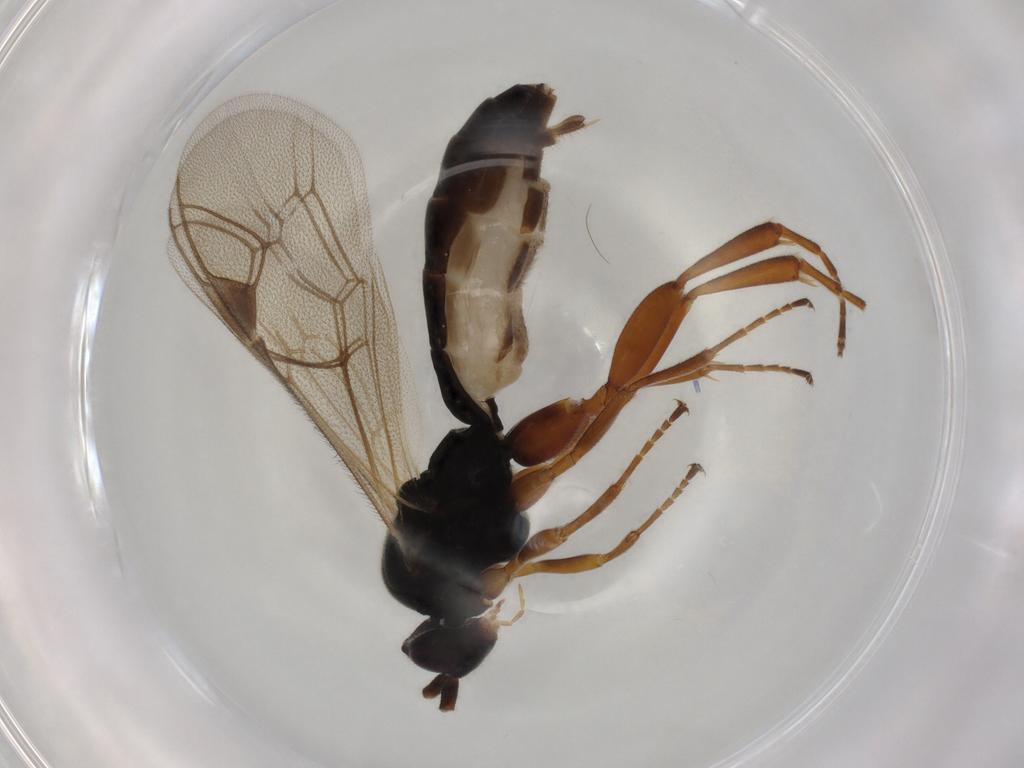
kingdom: Animalia
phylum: Arthropoda
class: Insecta
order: Hymenoptera
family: Ichneumonidae
